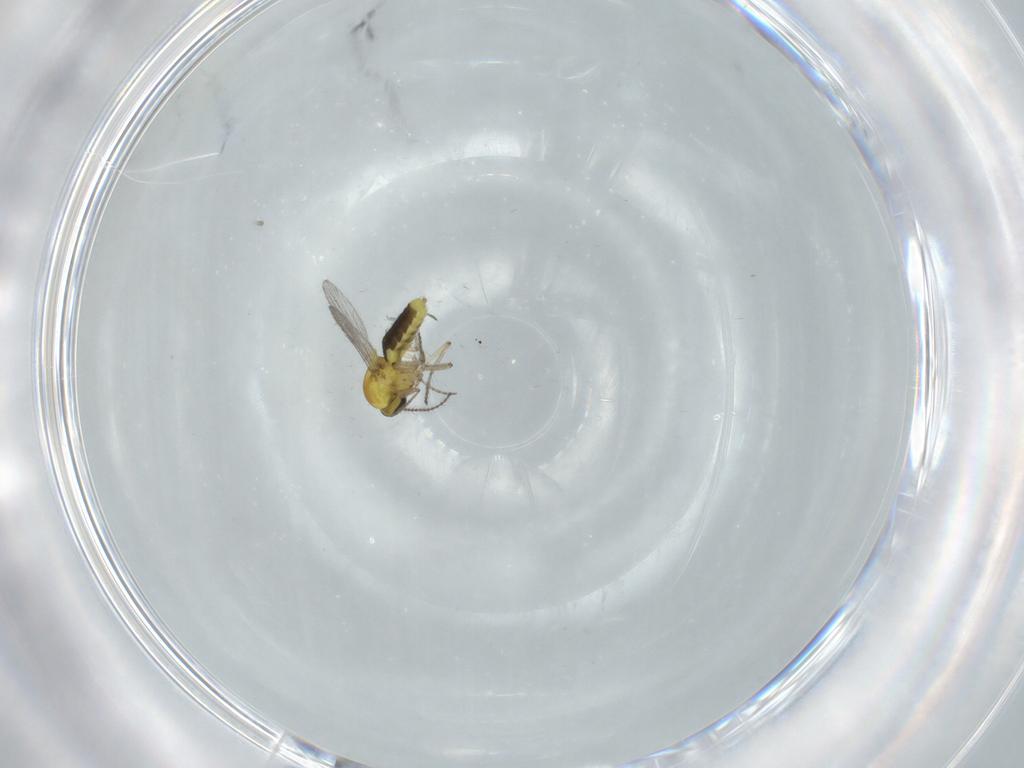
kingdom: Animalia
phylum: Arthropoda
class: Insecta
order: Diptera
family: Ceratopogonidae
